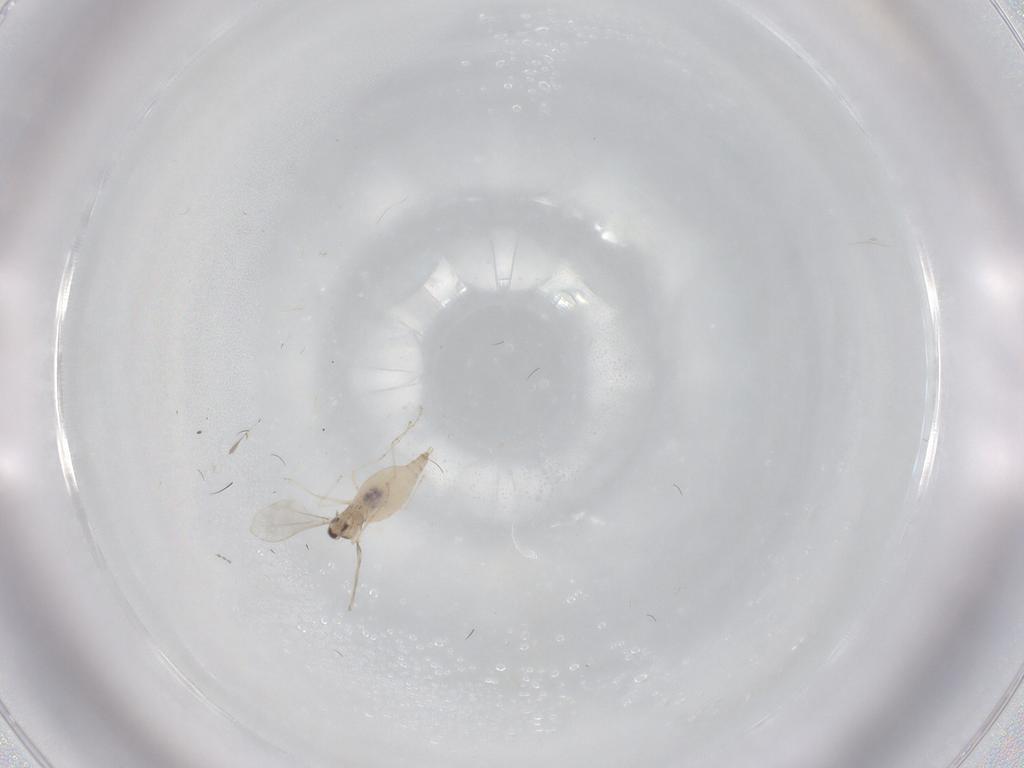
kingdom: Animalia
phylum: Arthropoda
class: Insecta
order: Diptera
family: Cecidomyiidae
